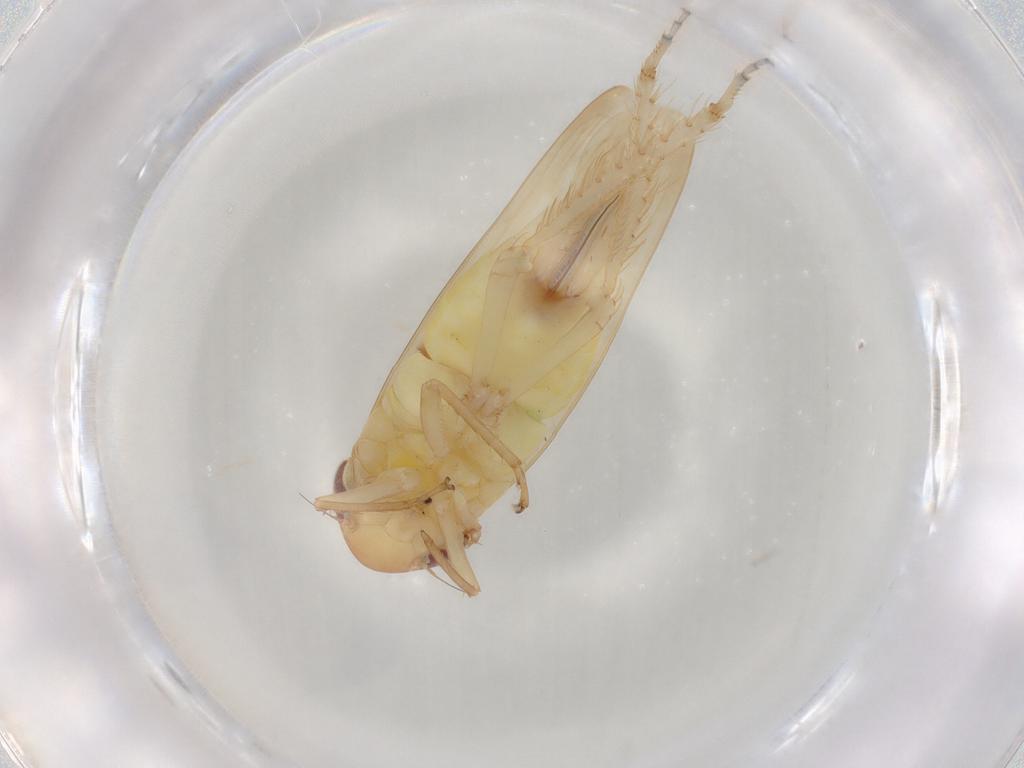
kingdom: Animalia
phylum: Arthropoda
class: Insecta
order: Hemiptera
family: Cicadellidae
